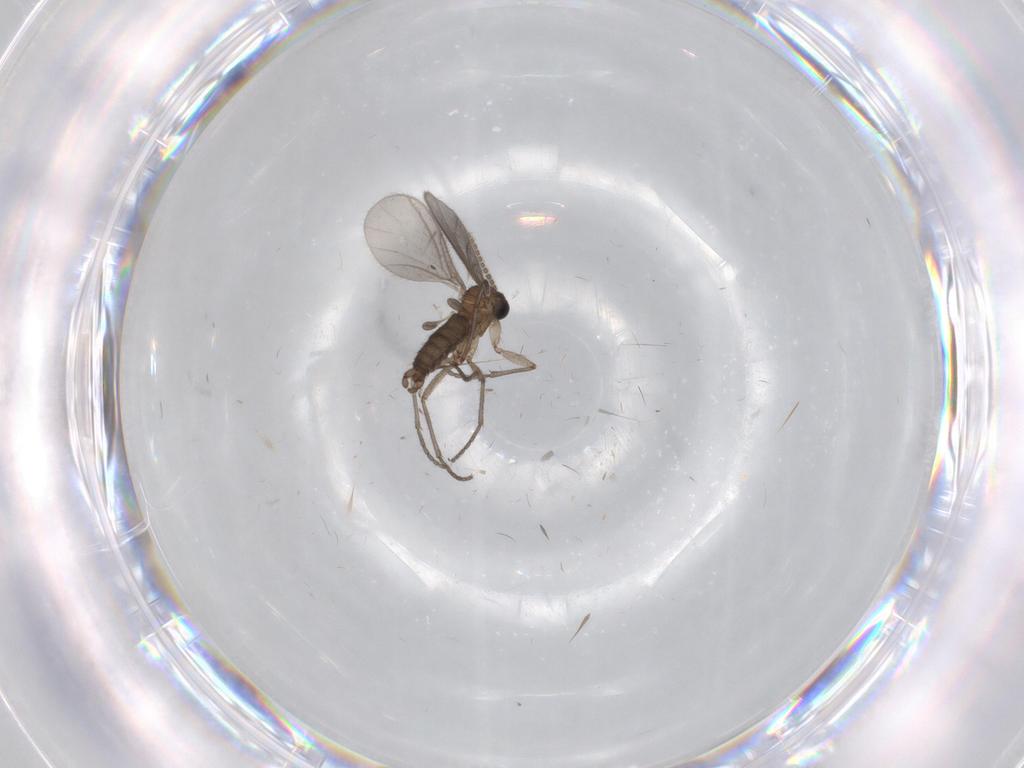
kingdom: Animalia
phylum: Arthropoda
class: Insecta
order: Diptera
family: Sciaridae
